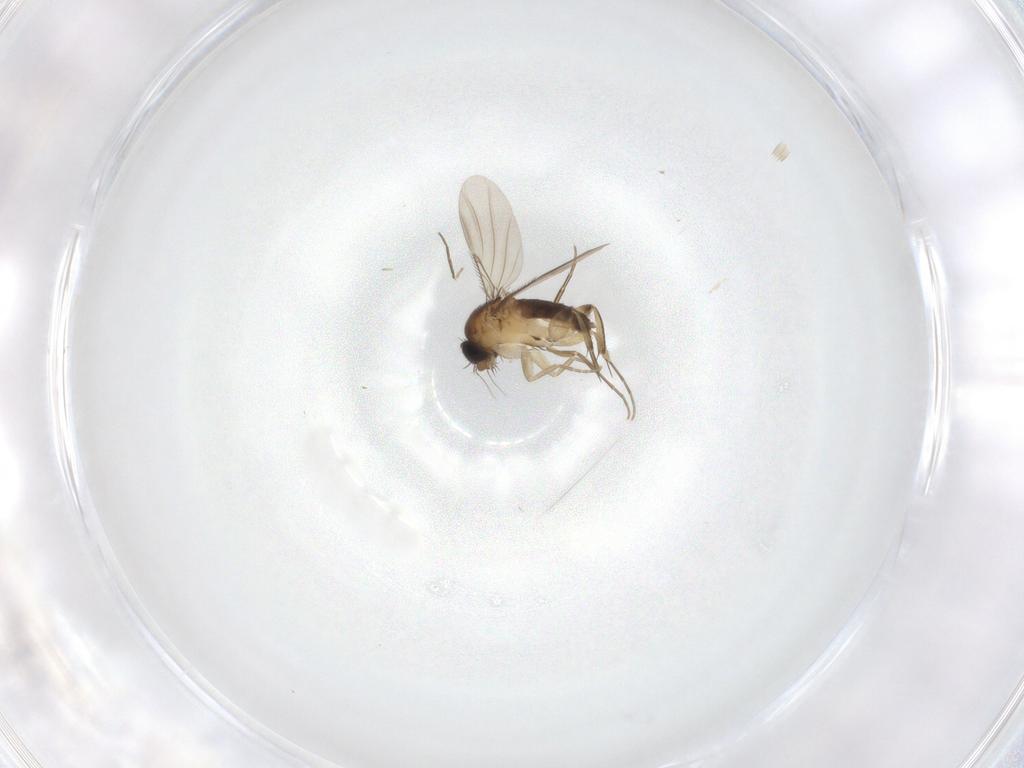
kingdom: Animalia
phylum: Arthropoda
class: Insecta
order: Diptera
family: Phoridae
